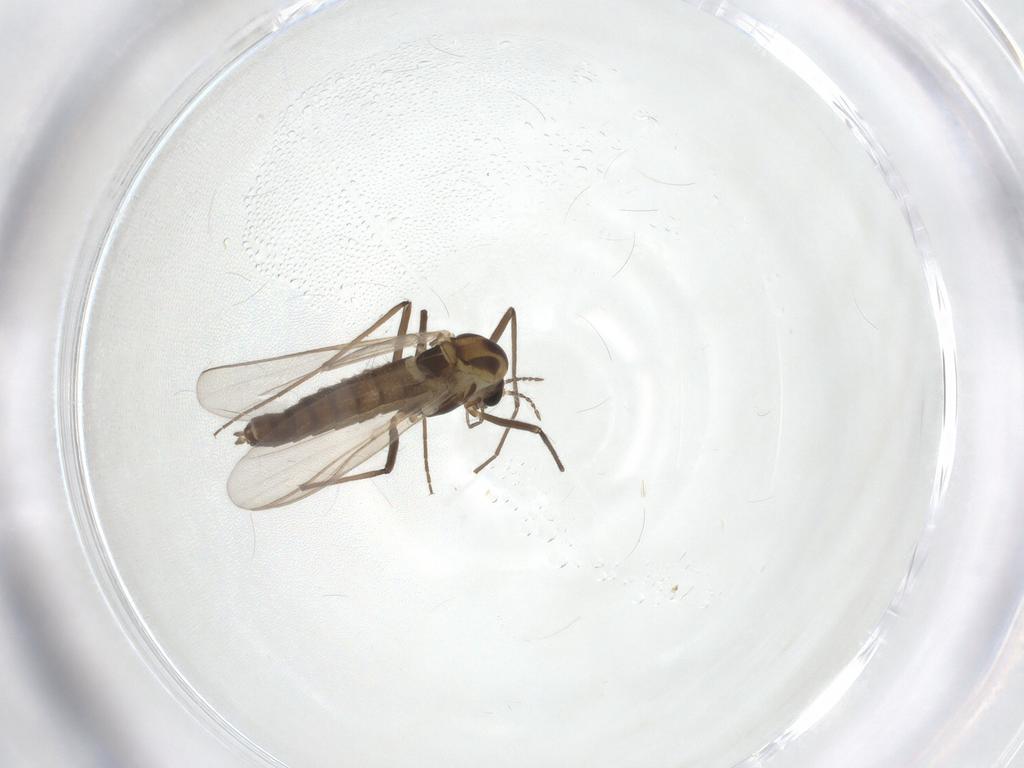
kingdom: Animalia
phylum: Arthropoda
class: Insecta
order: Diptera
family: Chironomidae
